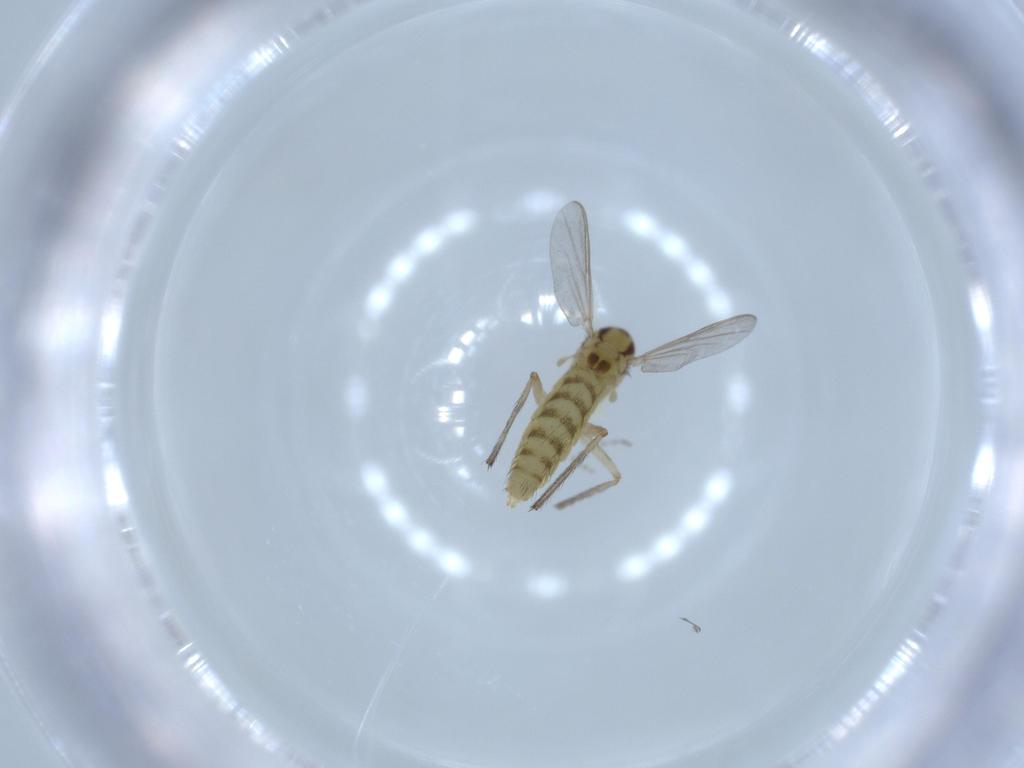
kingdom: Animalia
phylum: Arthropoda
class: Insecta
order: Diptera
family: Chironomidae
